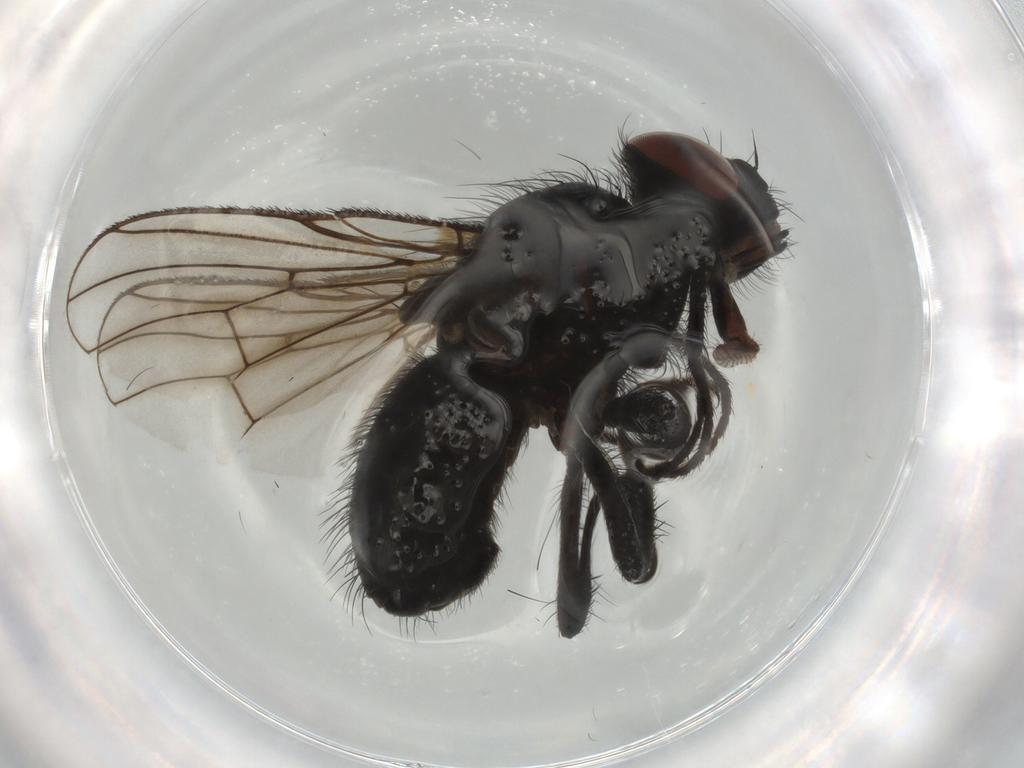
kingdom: Animalia
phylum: Arthropoda
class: Insecta
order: Diptera
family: Muscidae
